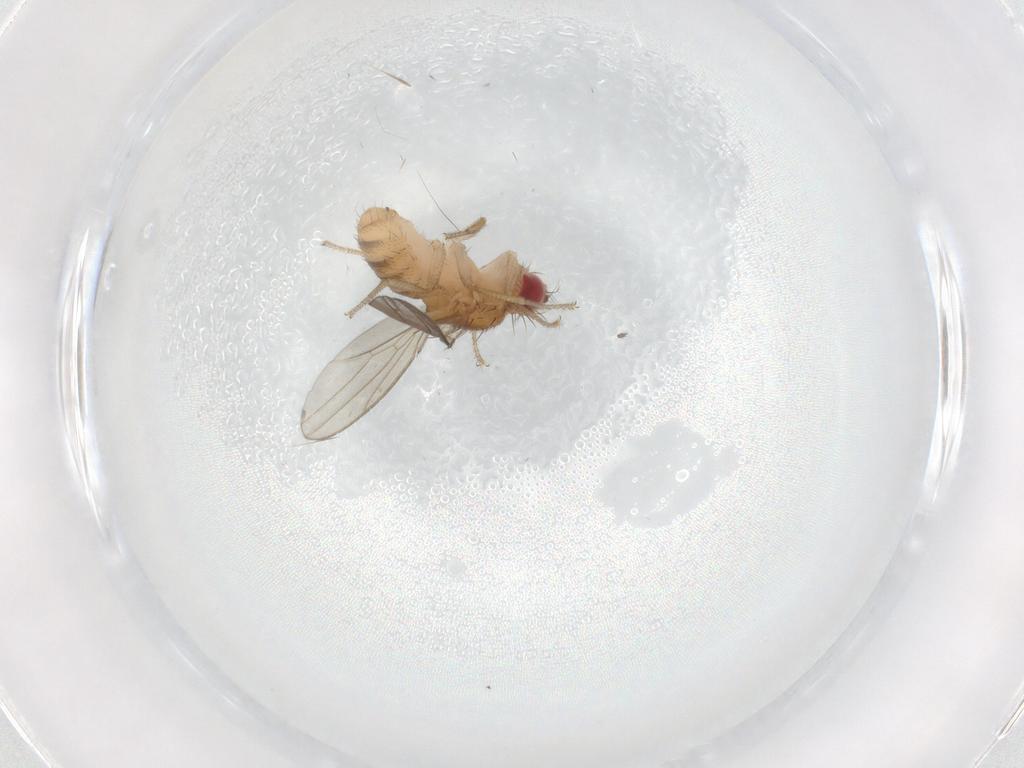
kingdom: Animalia
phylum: Arthropoda
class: Insecta
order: Diptera
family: Drosophilidae
